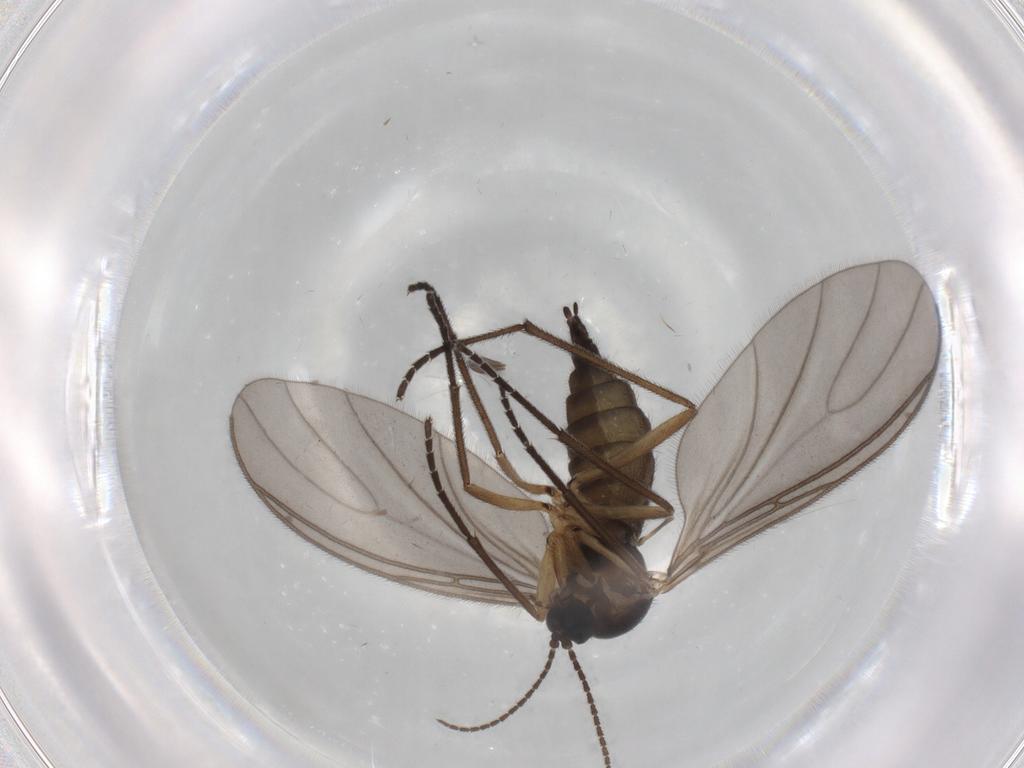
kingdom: Animalia
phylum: Arthropoda
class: Insecta
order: Diptera
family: Sciaridae
